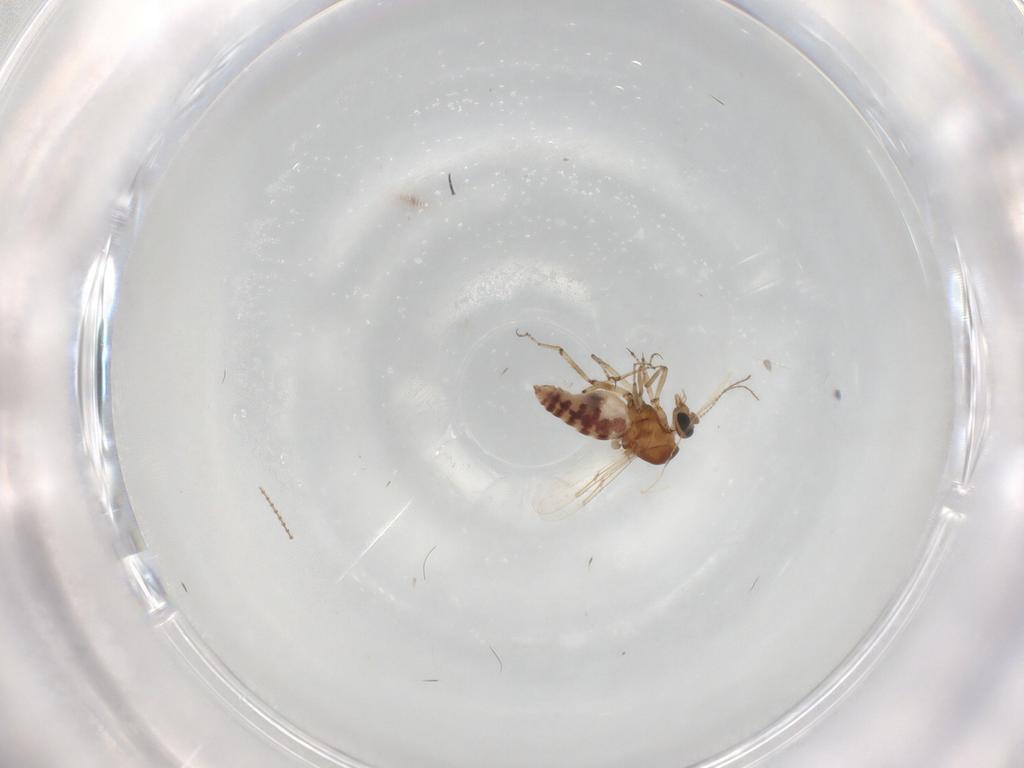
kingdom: Animalia
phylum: Arthropoda
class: Insecta
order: Diptera
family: Ceratopogonidae
